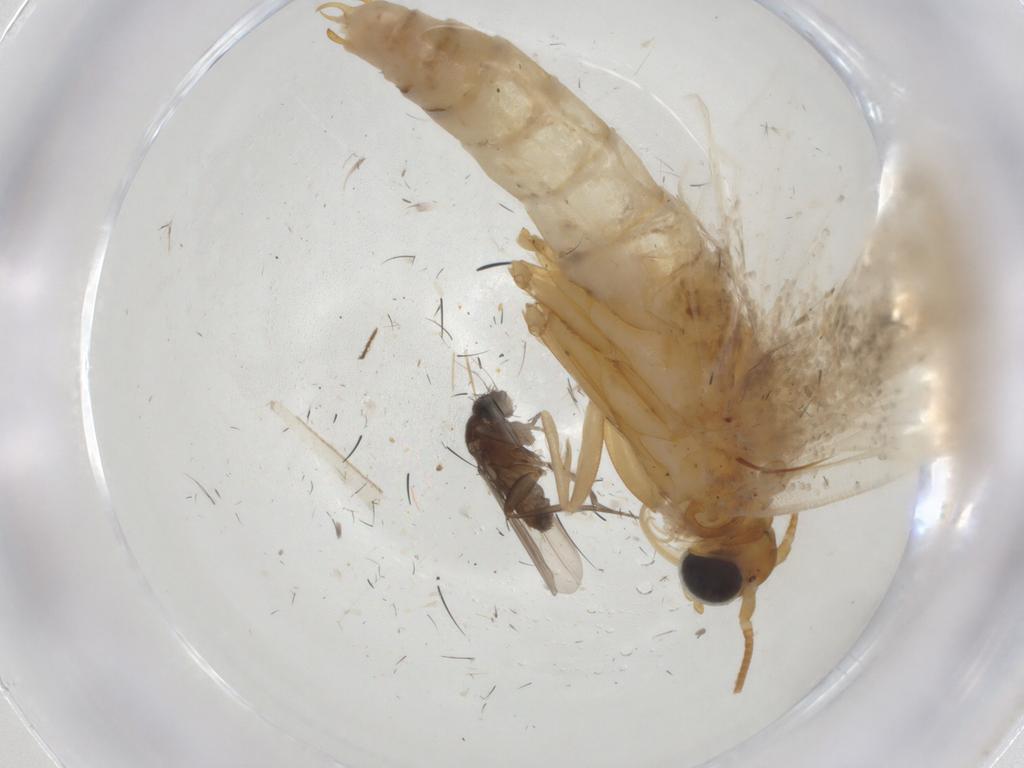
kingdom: Animalia
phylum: Arthropoda
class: Insecta
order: Lepidoptera
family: Pyralidae
